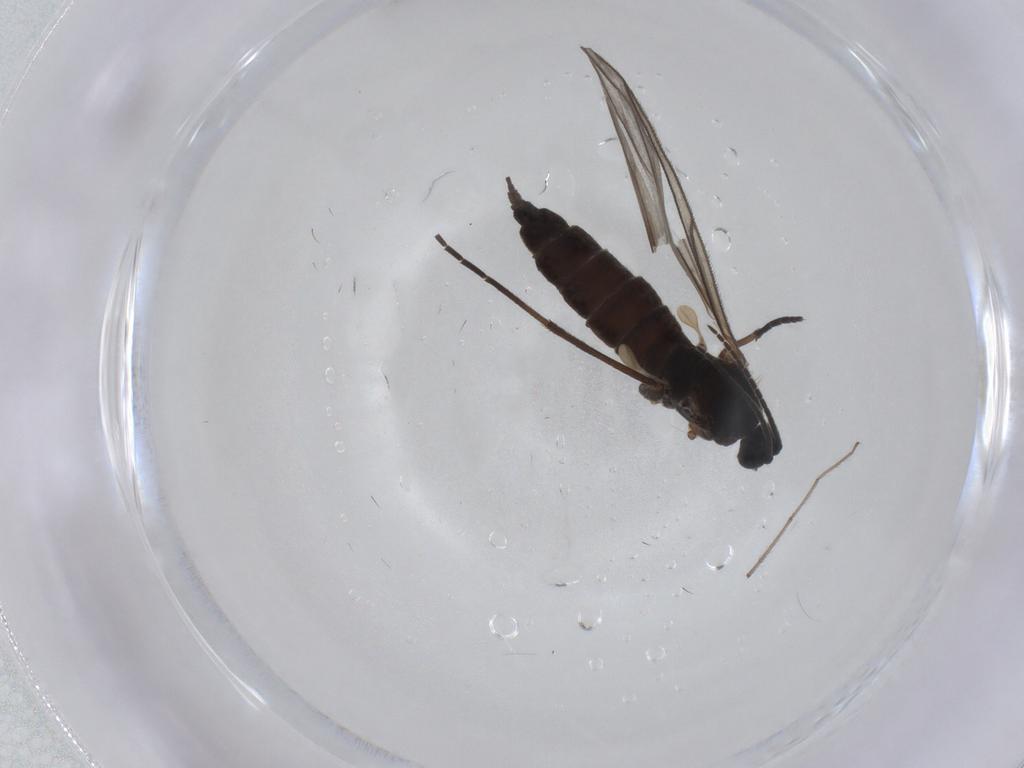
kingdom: Animalia
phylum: Arthropoda
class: Insecta
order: Diptera
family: Sciaridae
